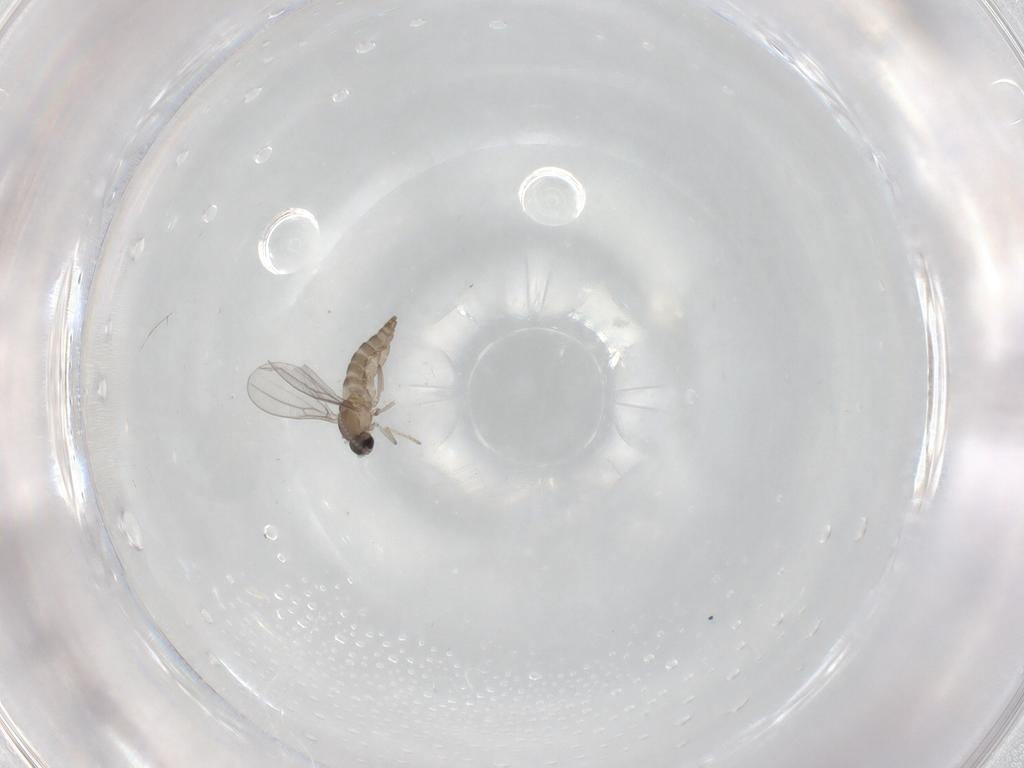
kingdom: Animalia
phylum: Arthropoda
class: Insecta
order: Diptera
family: Cecidomyiidae
